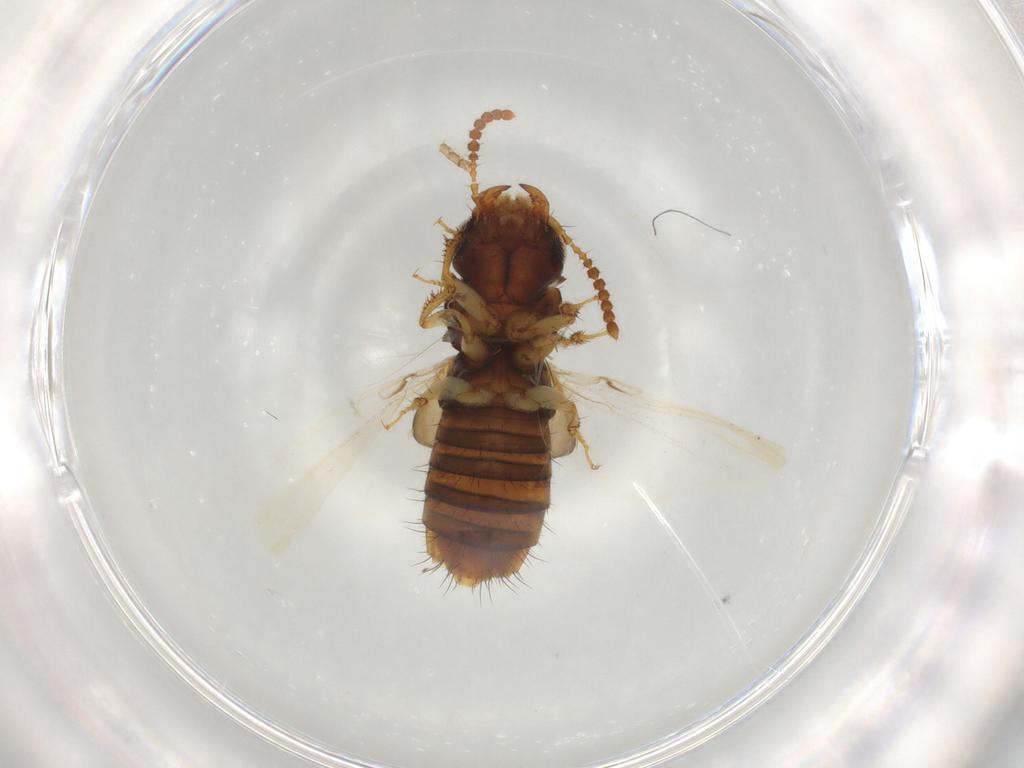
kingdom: Animalia
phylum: Arthropoda
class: Insecta
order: Coleoptera
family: Staphylinidae
